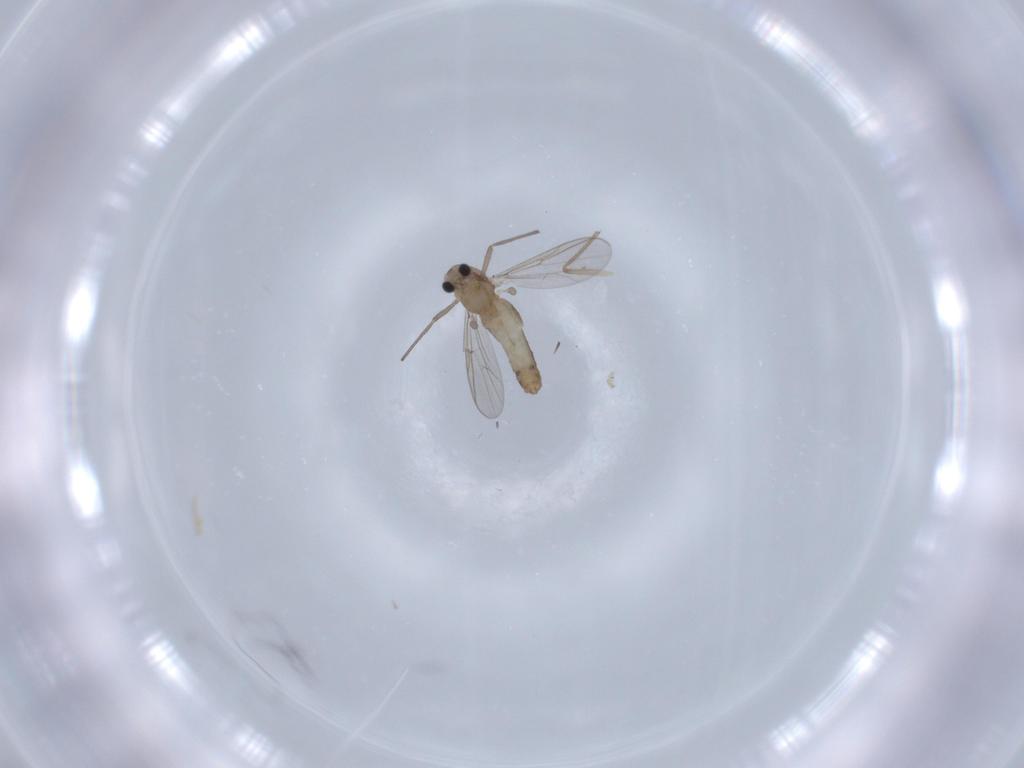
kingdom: Animalia
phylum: Arthropoda
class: Insecta
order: Diptera
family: Chironomidae
